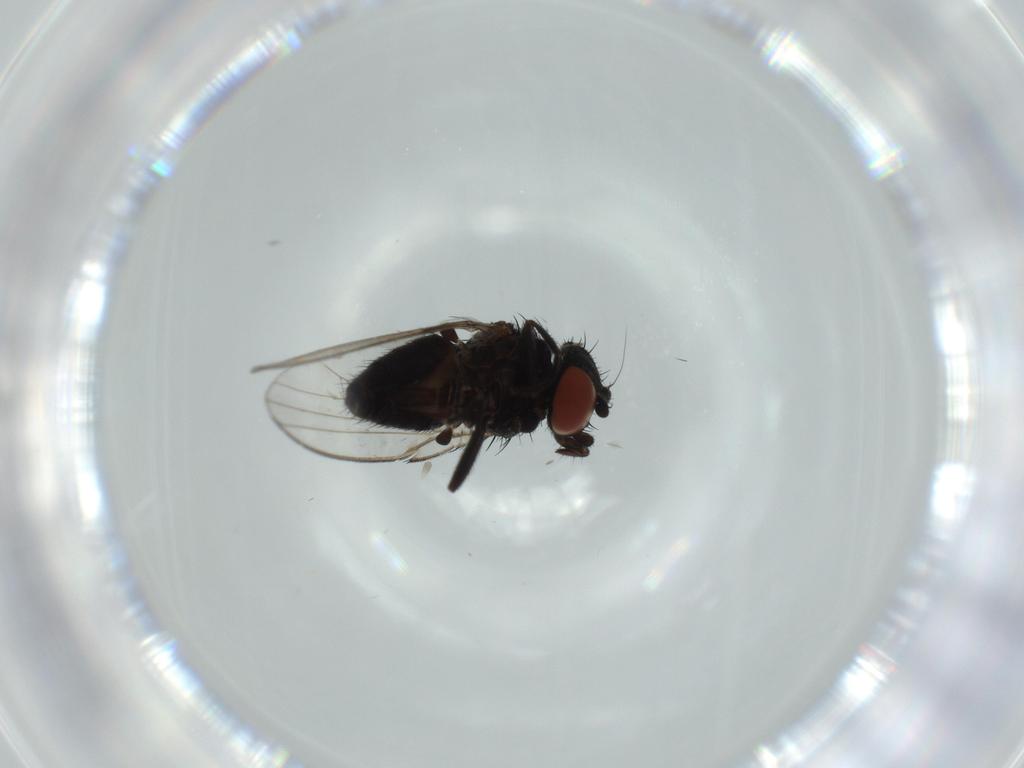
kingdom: Animalia
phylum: Arthropoda
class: Insecta
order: Diptera
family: Milichiidae
